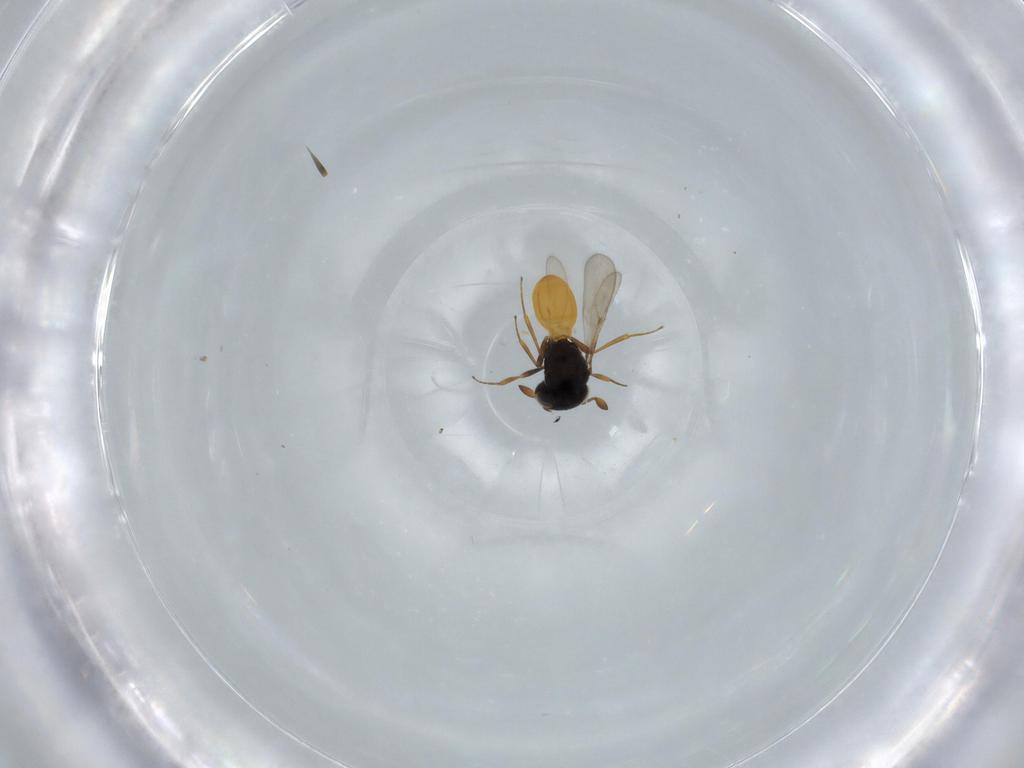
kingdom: Animalia
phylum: Arthropoda
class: Insecta
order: Hymenoptera
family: Scelionidae
